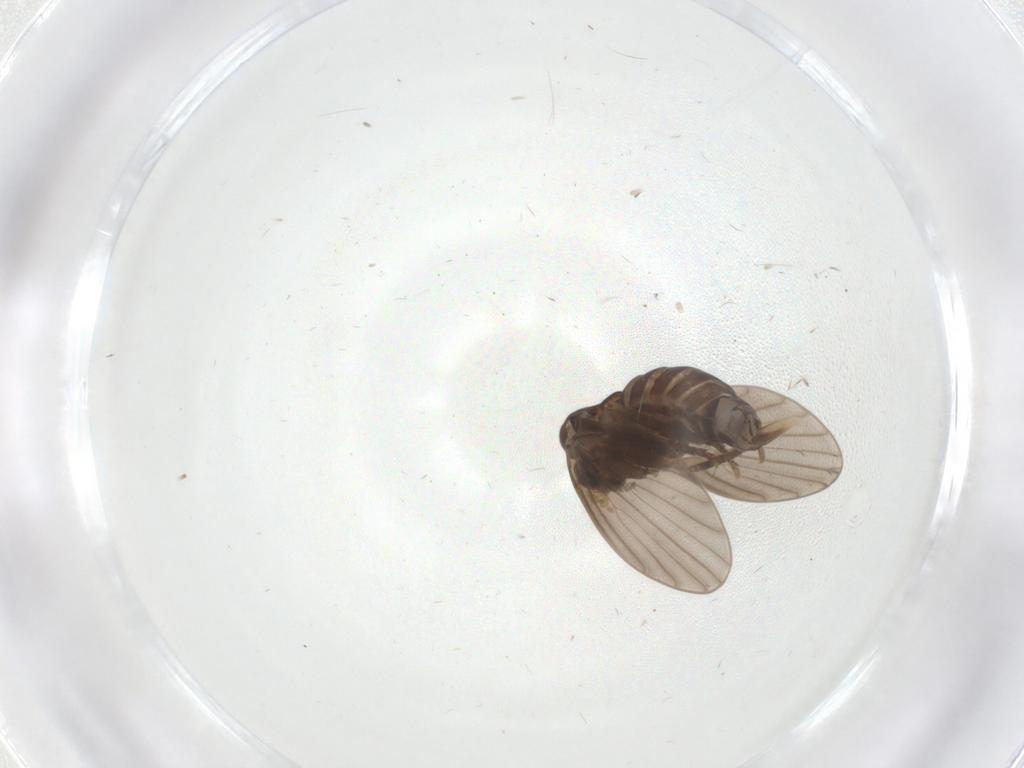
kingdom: Animalia
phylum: Arthropoda
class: Insecta
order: Diptera
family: Psychodidae
